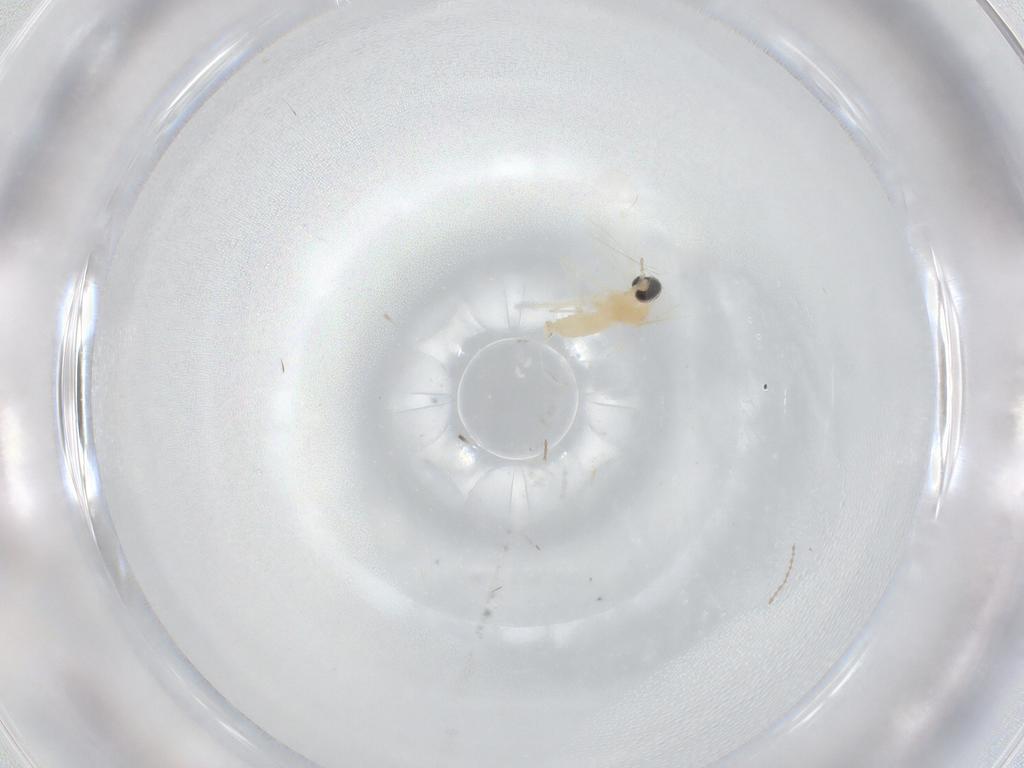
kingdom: Animalia
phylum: Arthropoda
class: Insecta
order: Diptera
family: Cecidomyiidae
